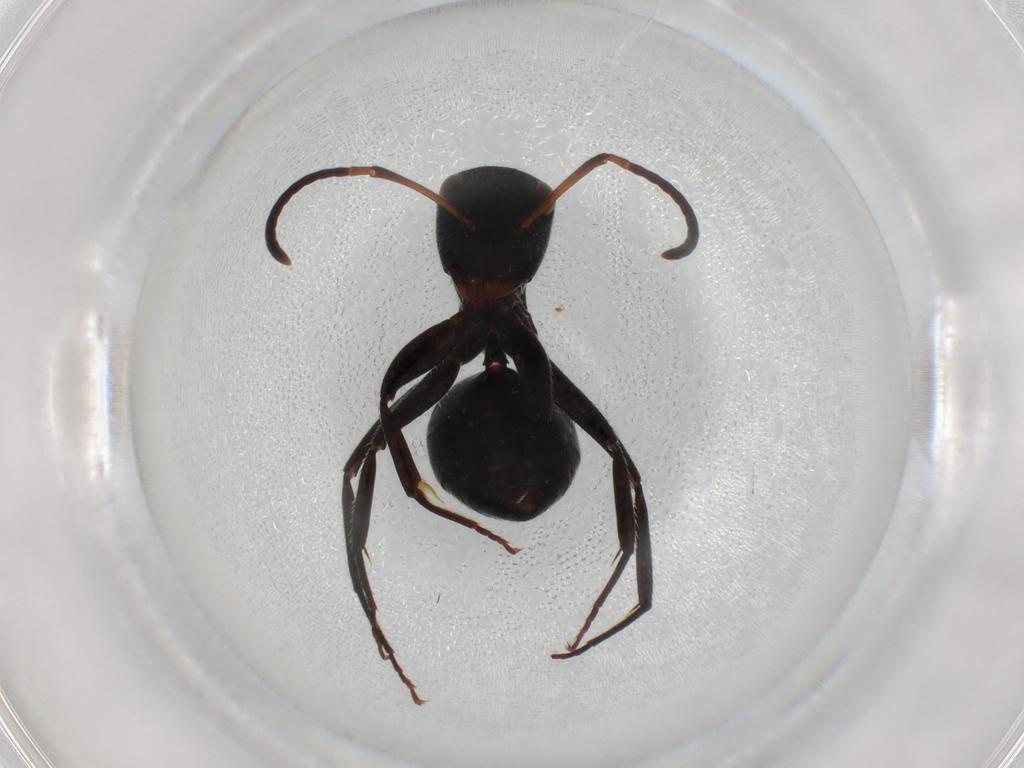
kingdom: Animalia
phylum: Arthropoda
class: Insecta
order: Hymenoptera
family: Formicidae
